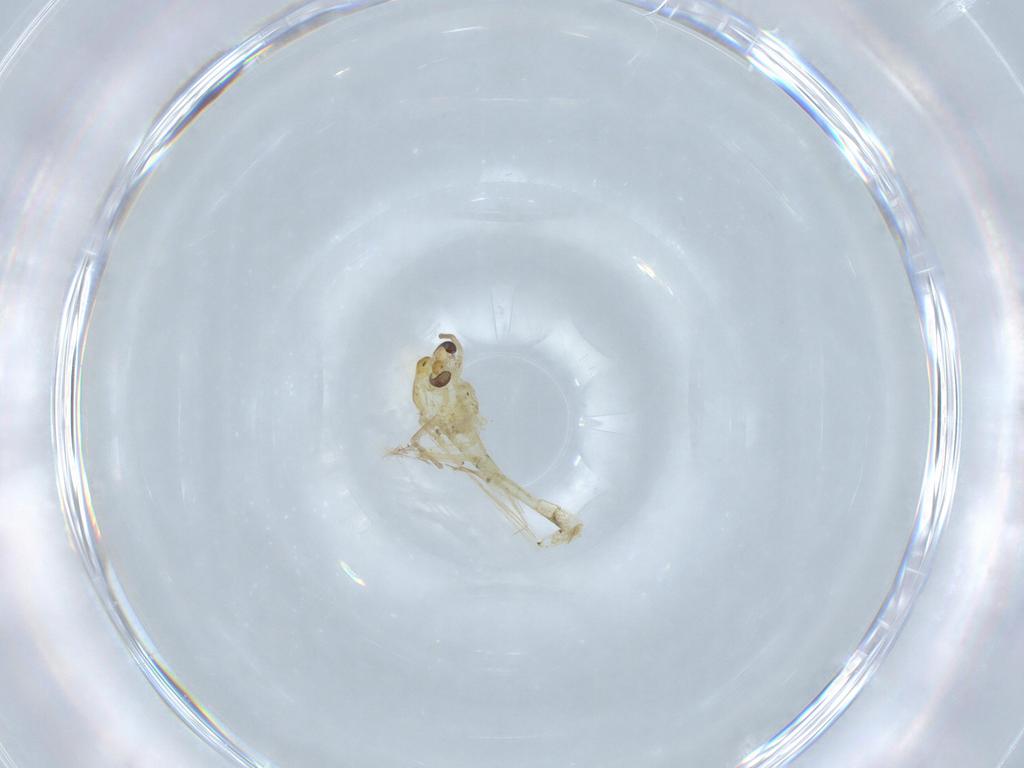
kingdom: Animalia
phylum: Arthropoda
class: Insecta
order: Diptera
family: Chironomidae
